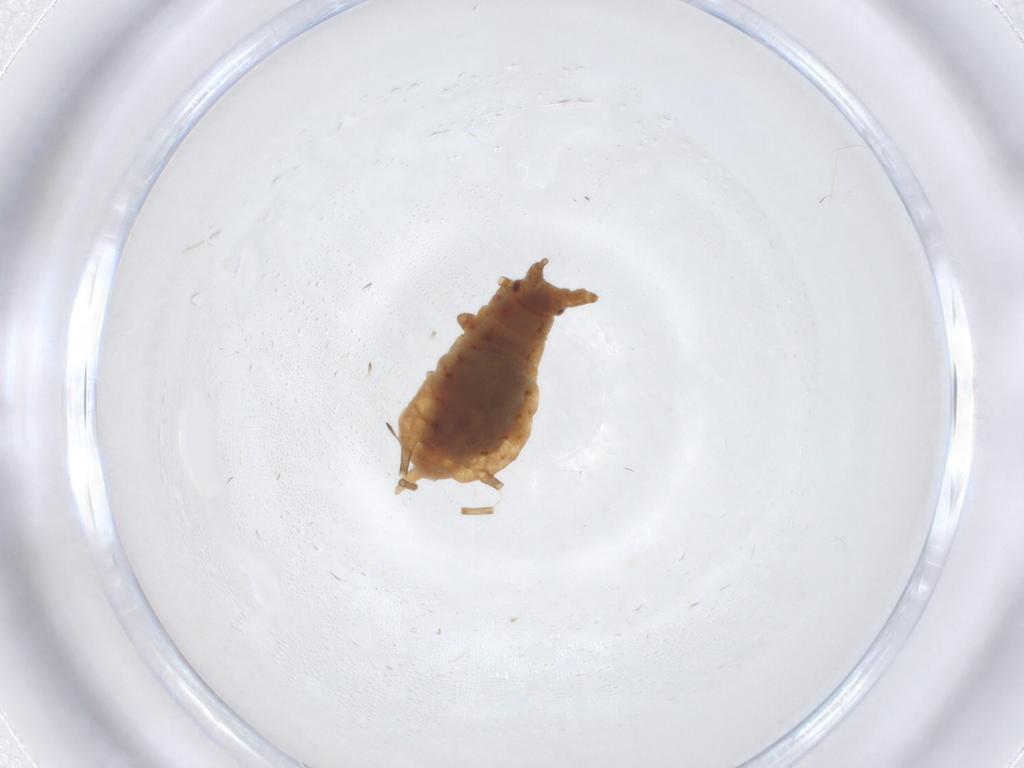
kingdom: Animalia
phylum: Arthropoda
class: Insecta
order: Hemiptera
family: Aphididae
